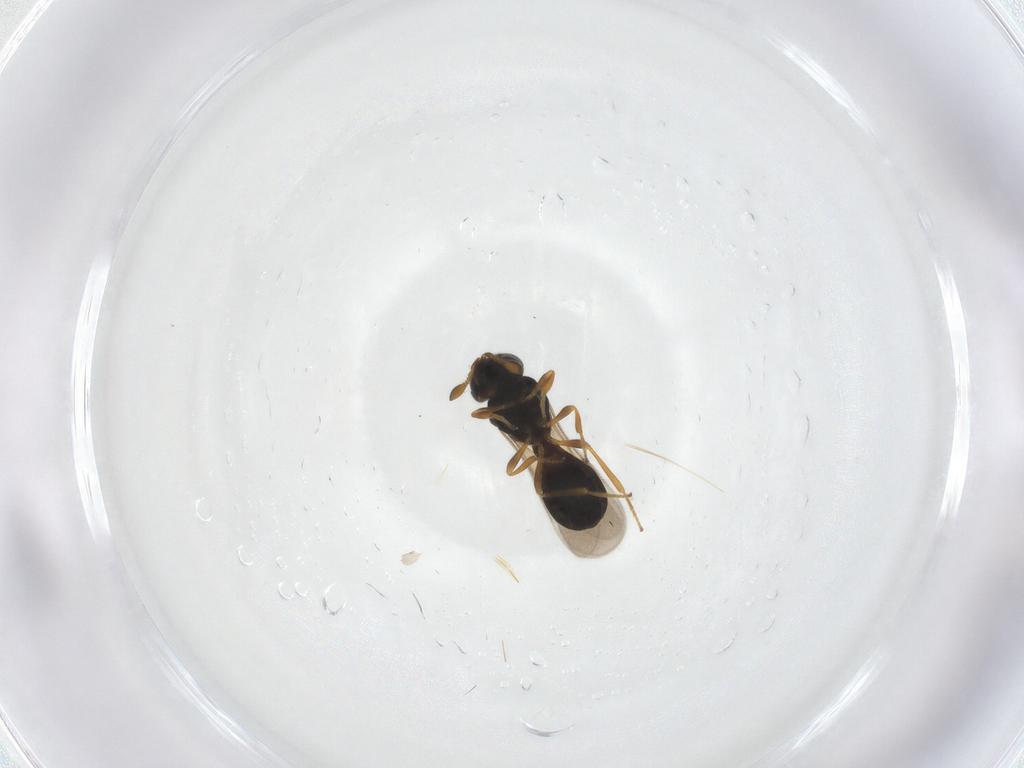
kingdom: Animalia
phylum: Arthropoda
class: Insecta
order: Hymenoptera
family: Scelionidae
